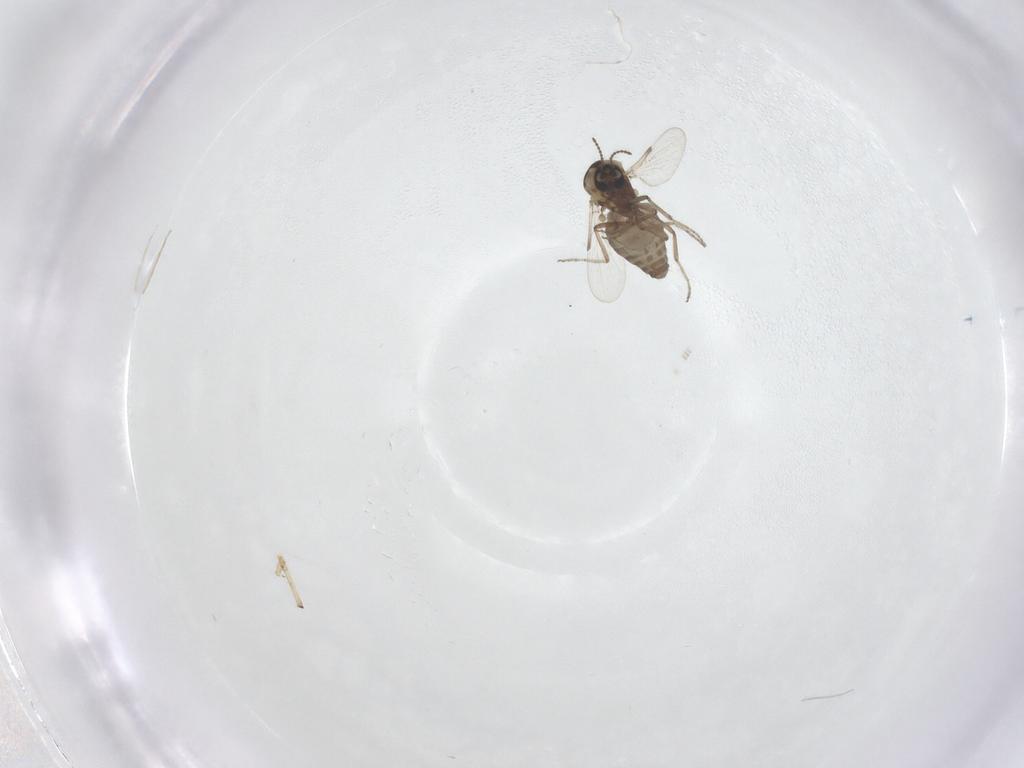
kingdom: Animalia
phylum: Arthropoda
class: Insecta
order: Diptera
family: Ceratopogonidae
